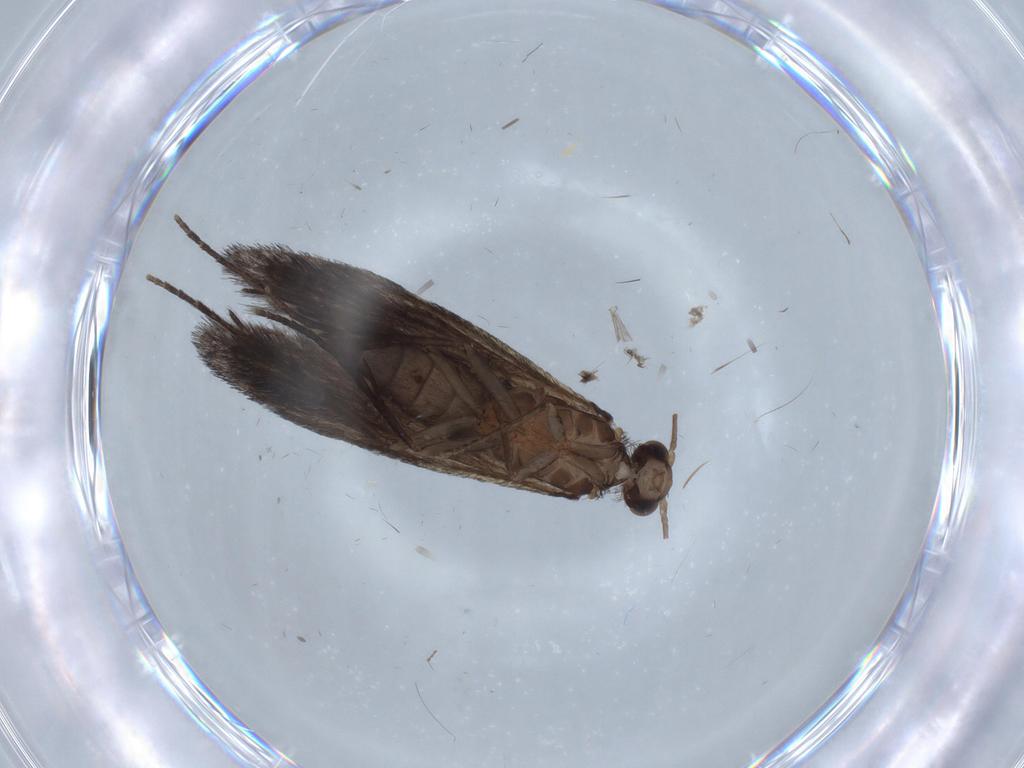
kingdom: Animalia
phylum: Arthropoda
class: Insecta
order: Trichoptera
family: Xiphocentronidae
